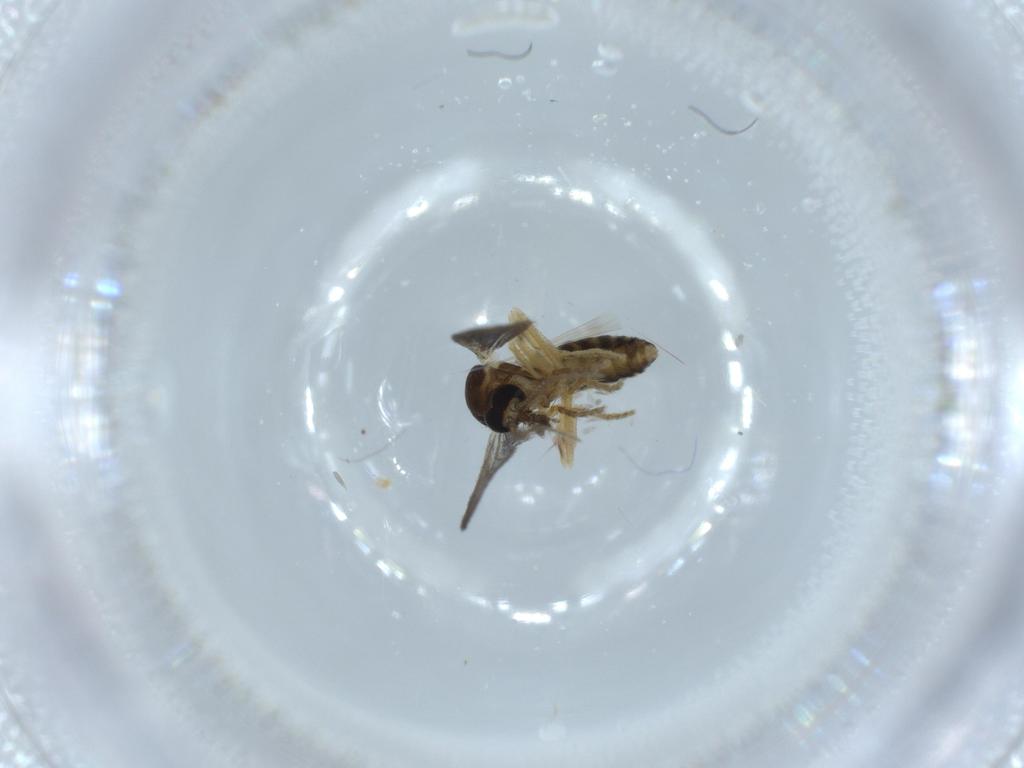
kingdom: Animalia
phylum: Arthropoda
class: Insecta
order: Diptera
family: Ceratopogonidae
